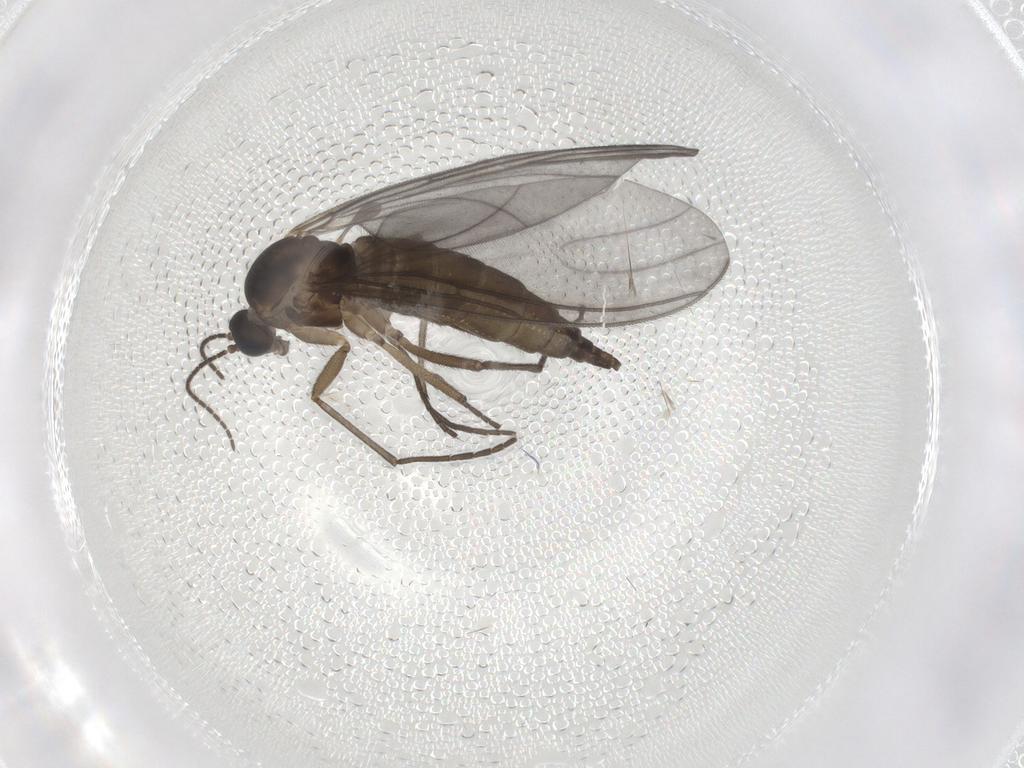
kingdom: Animalia
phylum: Arthropoda
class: Insecta
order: Diptera
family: Sciaridae
